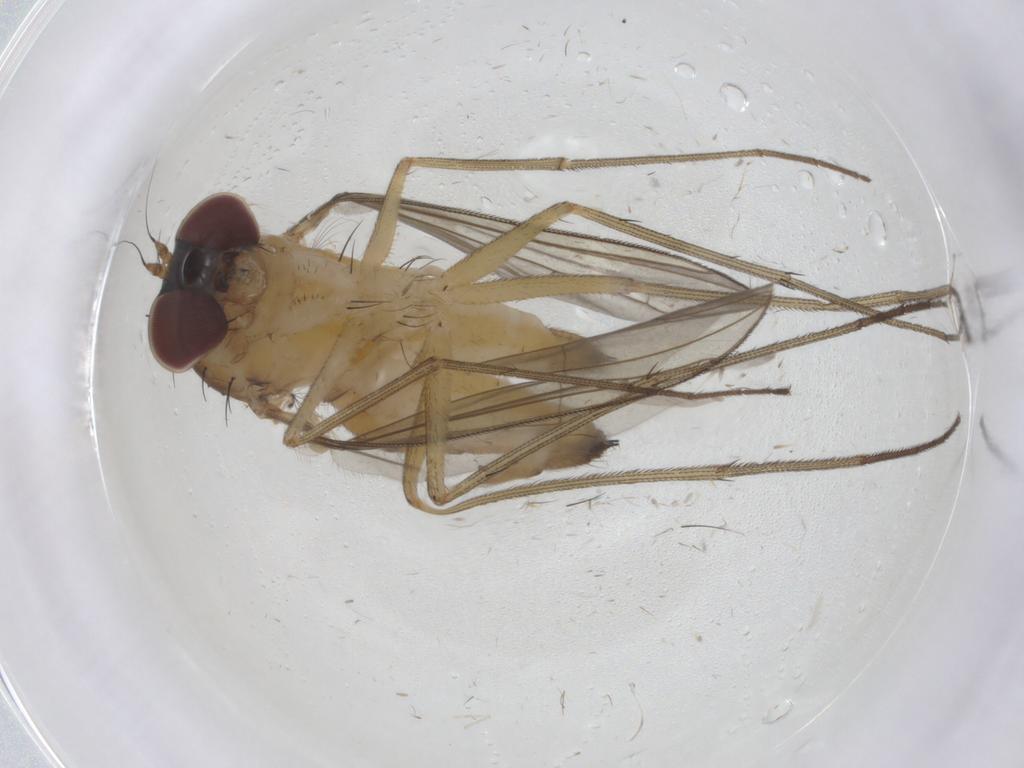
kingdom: Animalia
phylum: Arthropoda
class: Insecta
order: Diptera
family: Dolichopodidae
